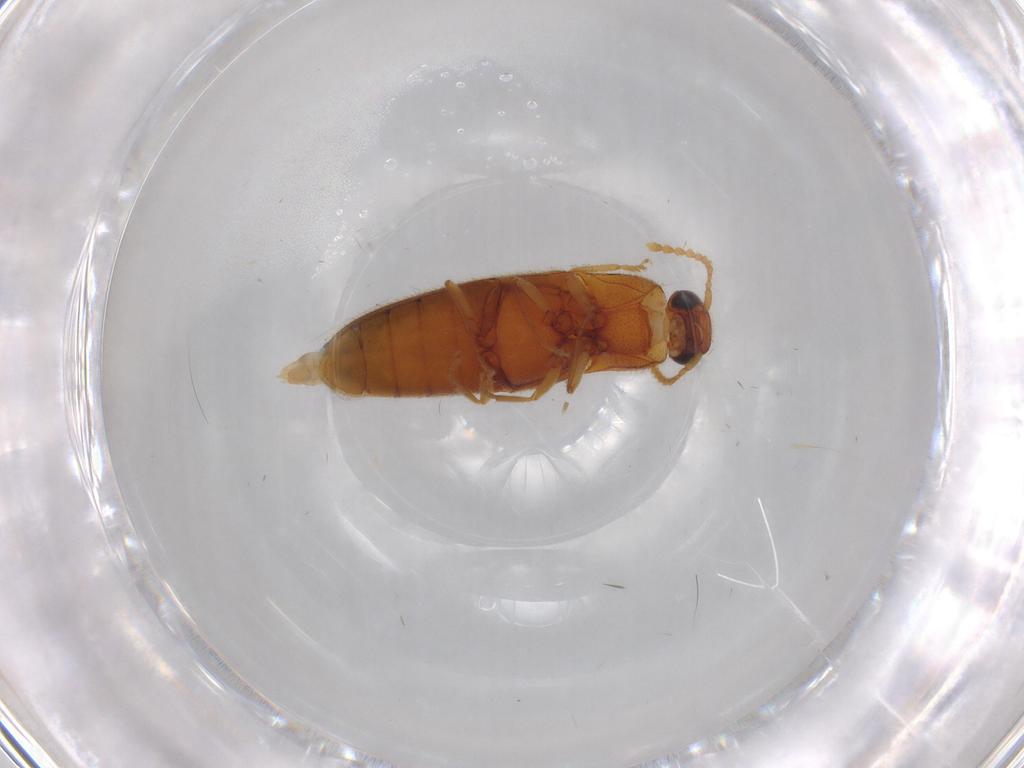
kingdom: Animalia
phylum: Arthropoda
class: Insecta
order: Coleoptera
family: Elateridae
